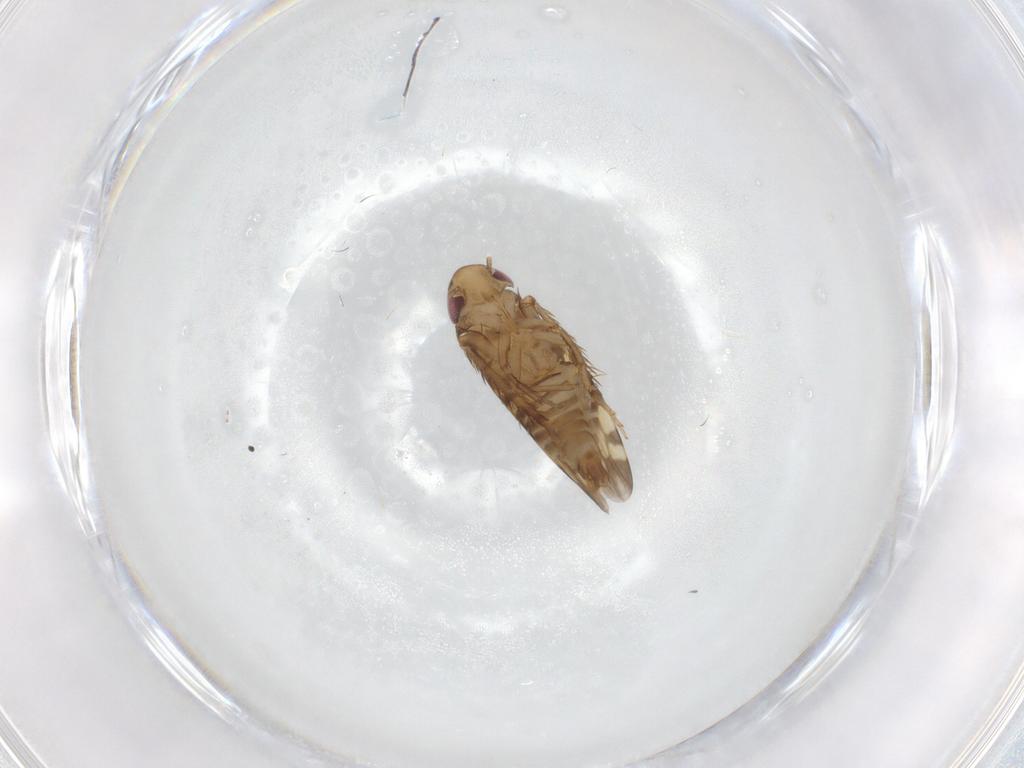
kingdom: Animalia
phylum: Arthropoda
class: Insecta
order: Hemiptera
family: Cicadellidae
